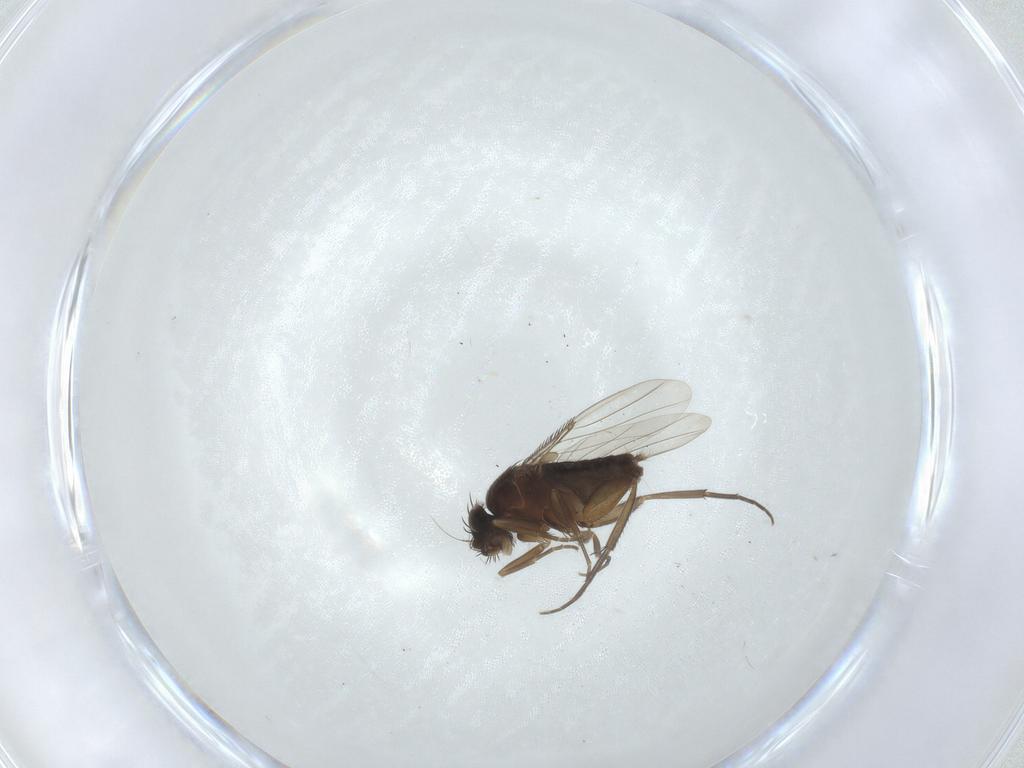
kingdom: Animalia
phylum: Arthropoda
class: Insecta
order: Diptera
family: Phoridae
